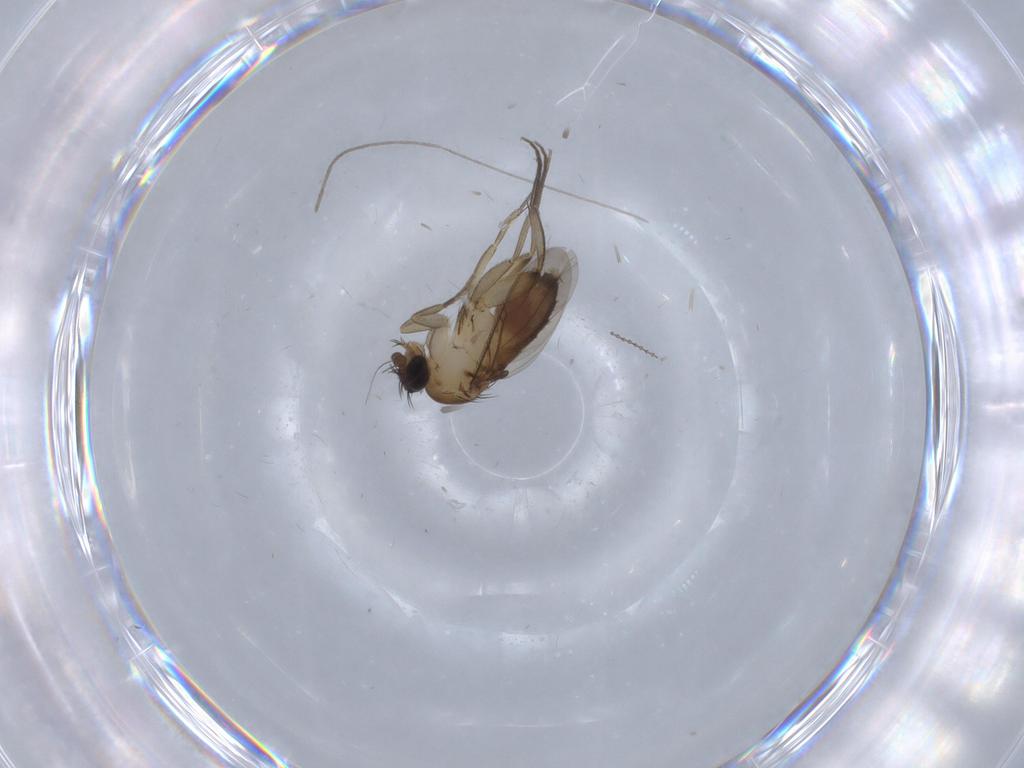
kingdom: Animalia
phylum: Arthropoda
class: Insecta
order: Diptera
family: Phoridae
